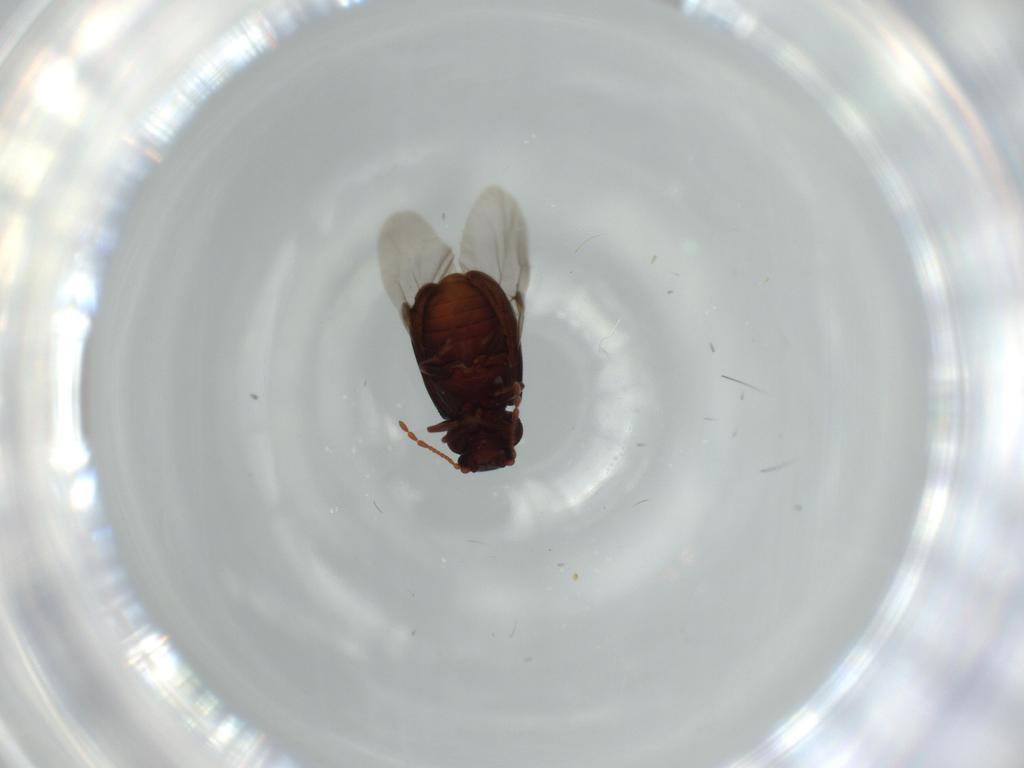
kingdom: Animalia
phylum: Arthropoda
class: Insecta
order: Coleoptera
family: Ptinidae
